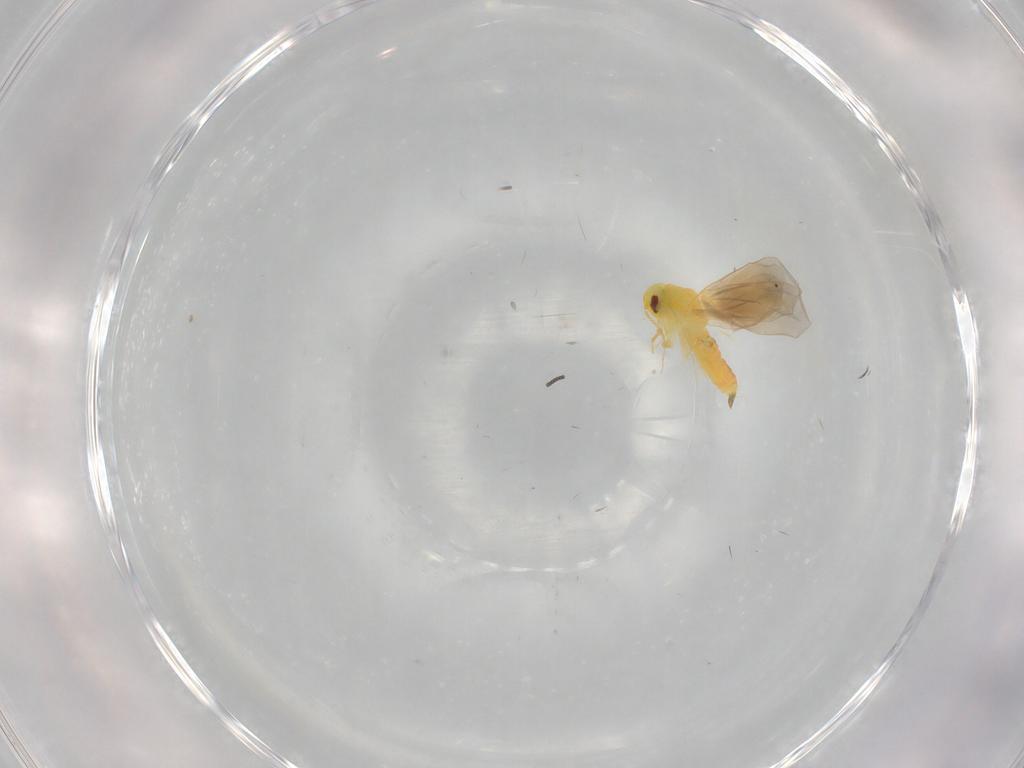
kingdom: Animalia
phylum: Arthropoda
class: Insecta
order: Hemiptera
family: Aleyrodidae
